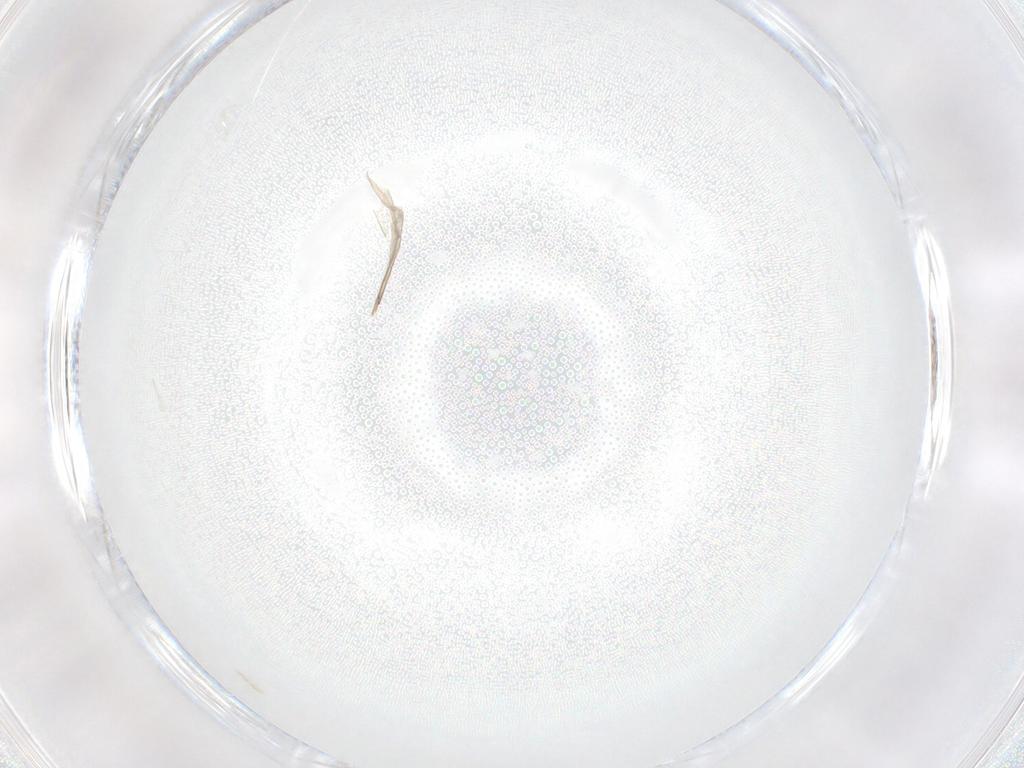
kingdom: Animalia
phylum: Arthropoda
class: Insecta
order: Diptera
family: Cecidomyiidae
